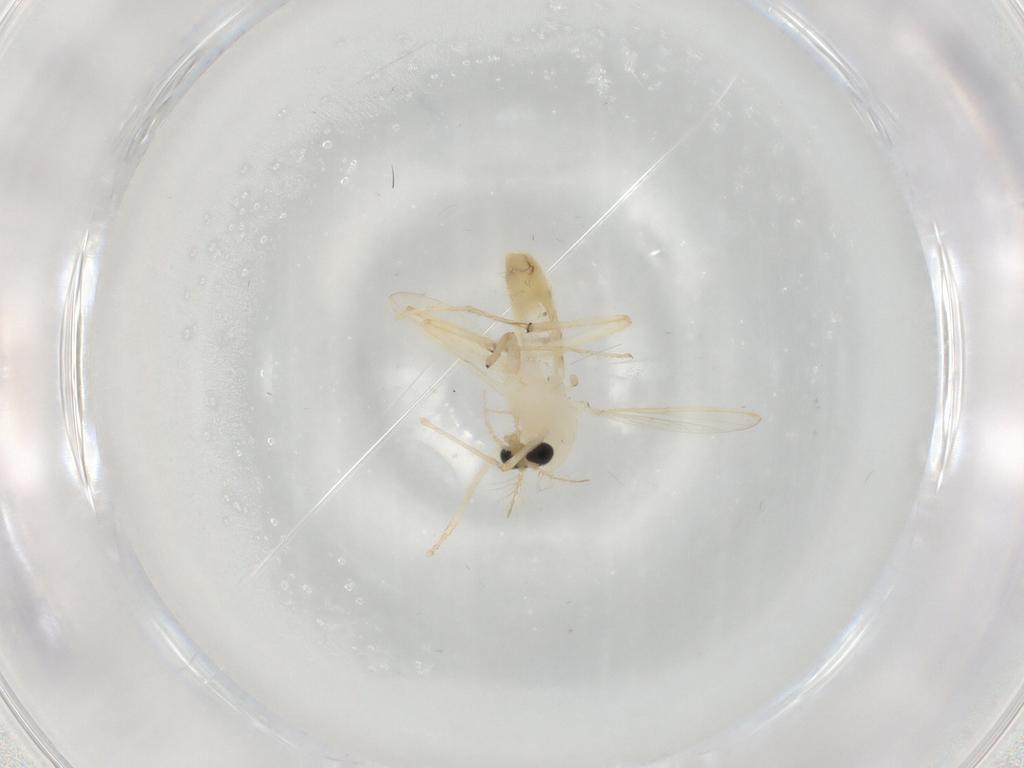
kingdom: Animalia
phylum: Arthropoda
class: Insecta
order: Diptera
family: Chironomidae
